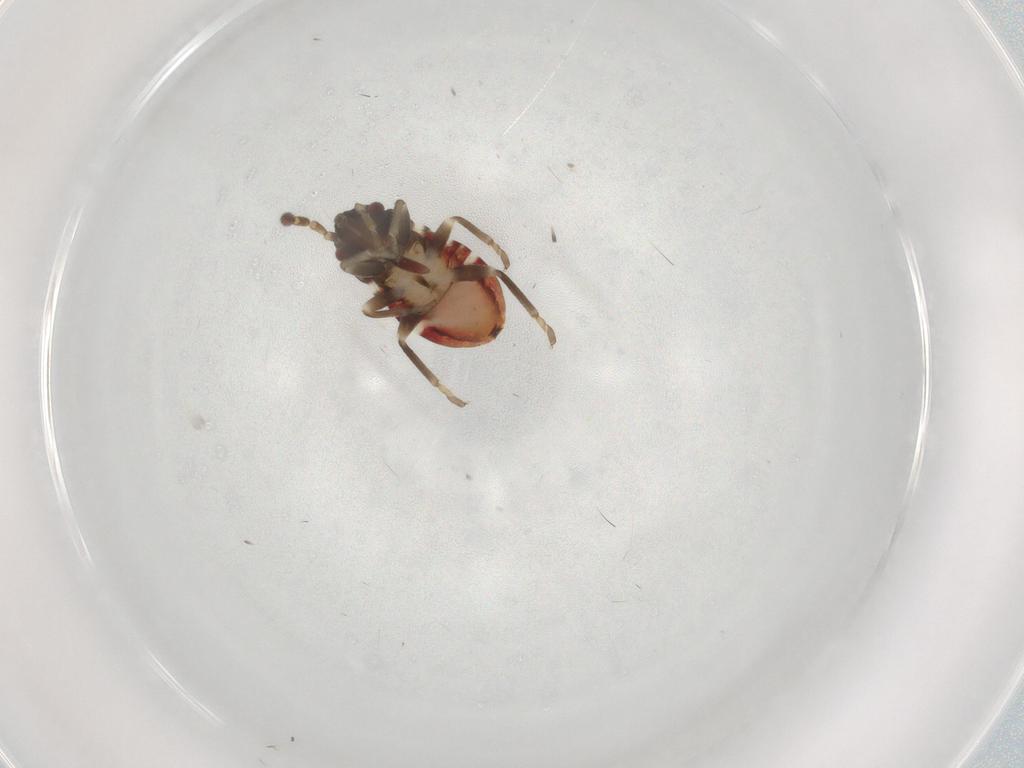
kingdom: Animalia
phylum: Arthropoda
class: Insecta
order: Hemiptera
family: Rhyparochromidae
